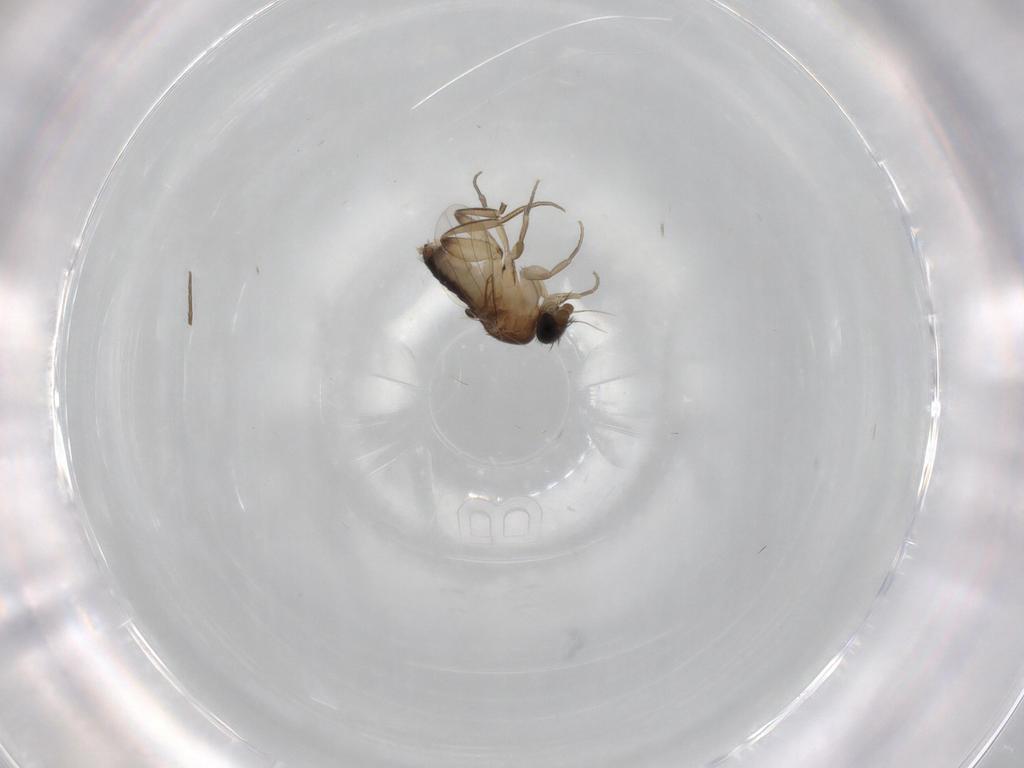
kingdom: Animalia
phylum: Arthropoda
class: Insecta
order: Diptera
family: Phoridae
